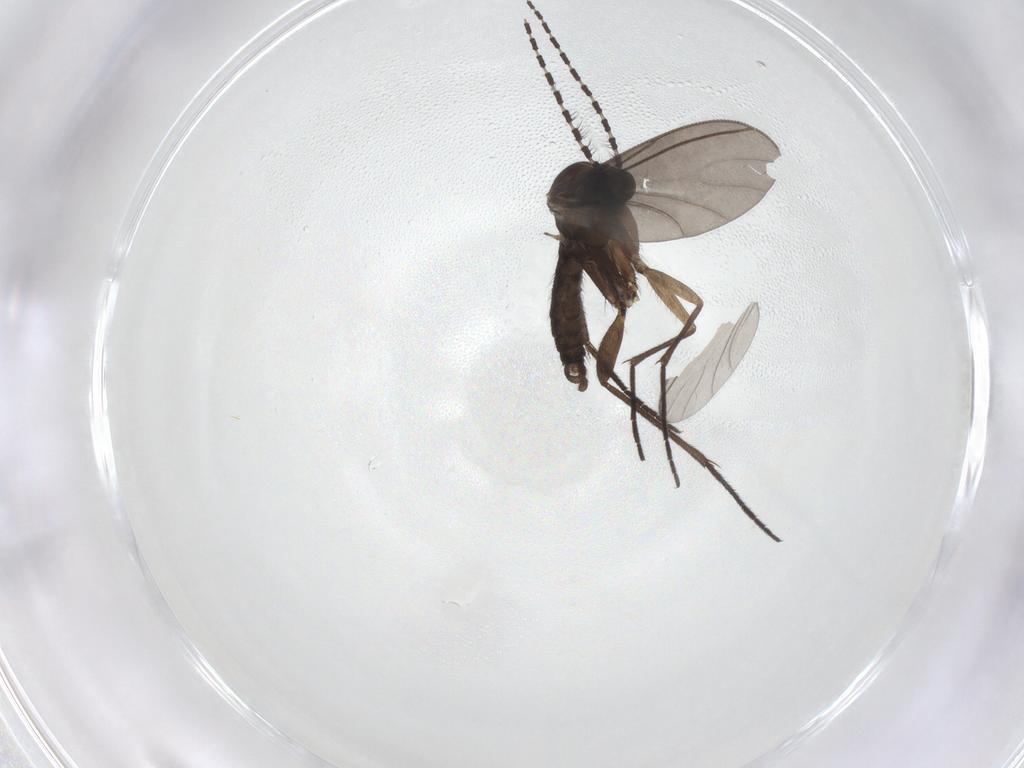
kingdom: Animalia
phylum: Arthropoda
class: Insecta
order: Diptera
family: Sciaridae
